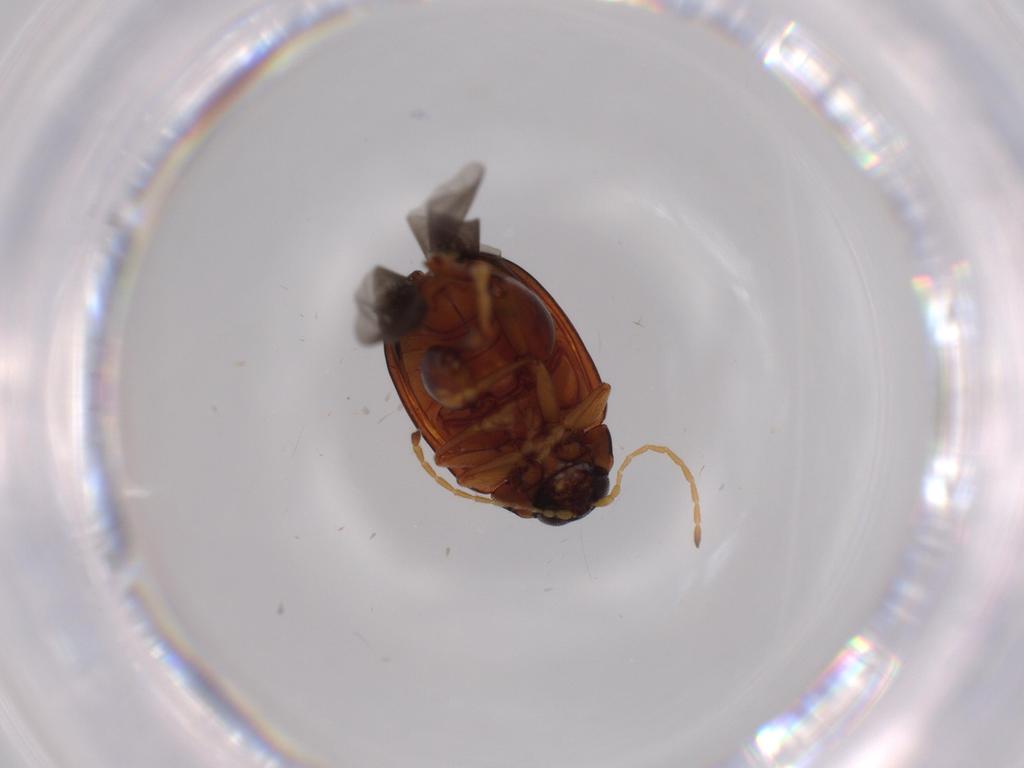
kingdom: Animalia
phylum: Arthropoda
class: Insecta
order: Coleoptera
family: Chrysomelidae
